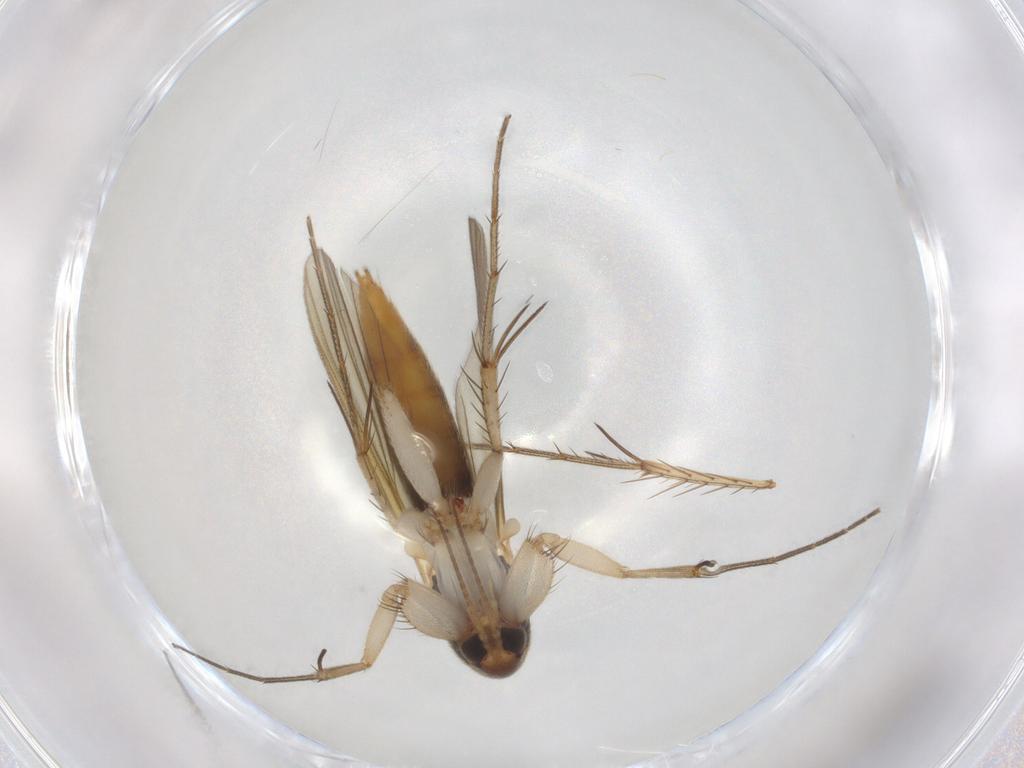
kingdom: Animalia
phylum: Arthropoda
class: Insecta
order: Diptera
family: Mycetophilidae
